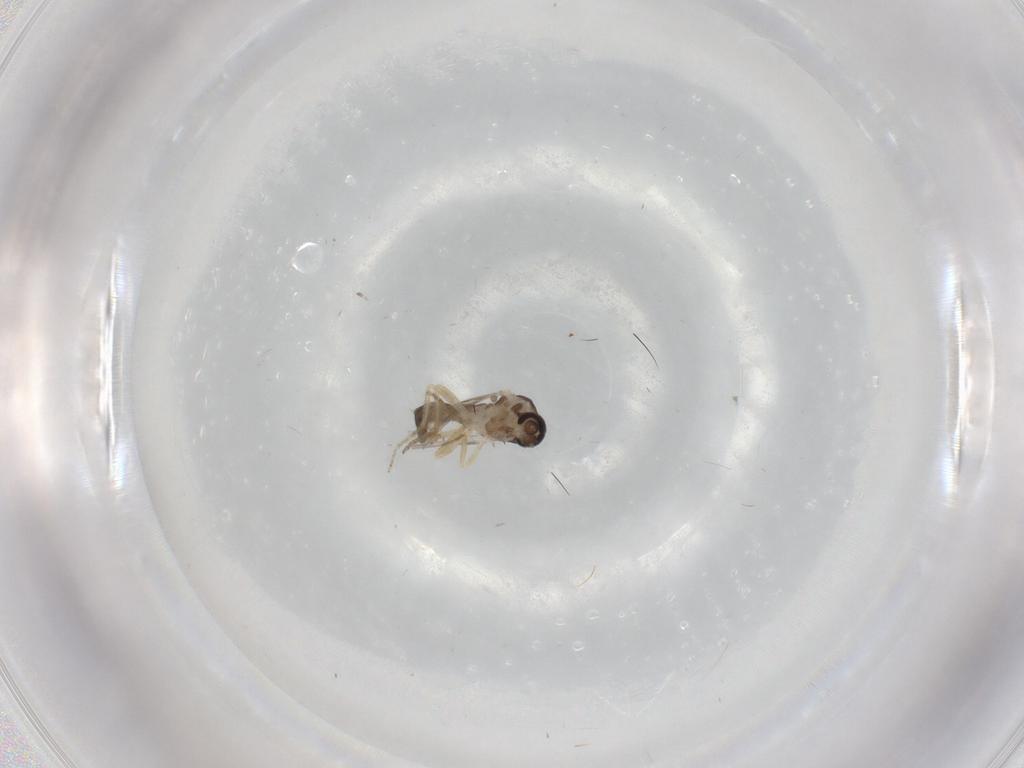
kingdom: Animalia
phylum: Arthropoda
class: Insecta
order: Diptera
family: Ceratopogonidae
